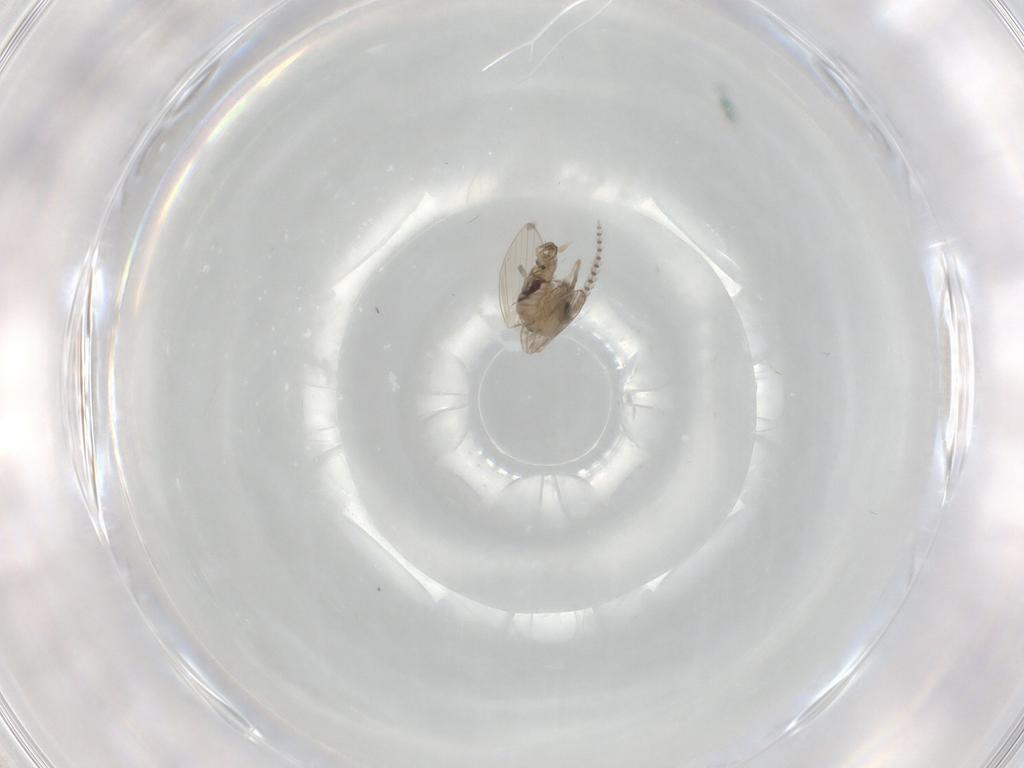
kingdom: Animalia
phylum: Arthropoda
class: Insecta
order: Diptera
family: Psychodidae
